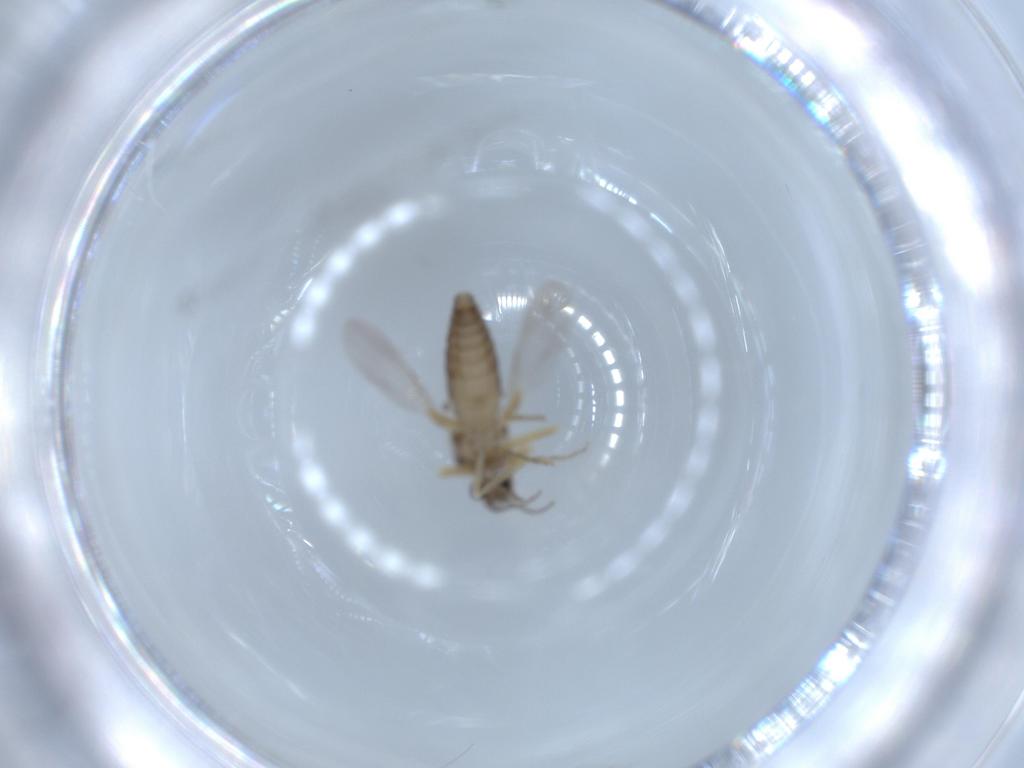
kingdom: Animalia
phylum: Arthropoda
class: Insecta
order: Diptera
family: Ceratopogonidae
